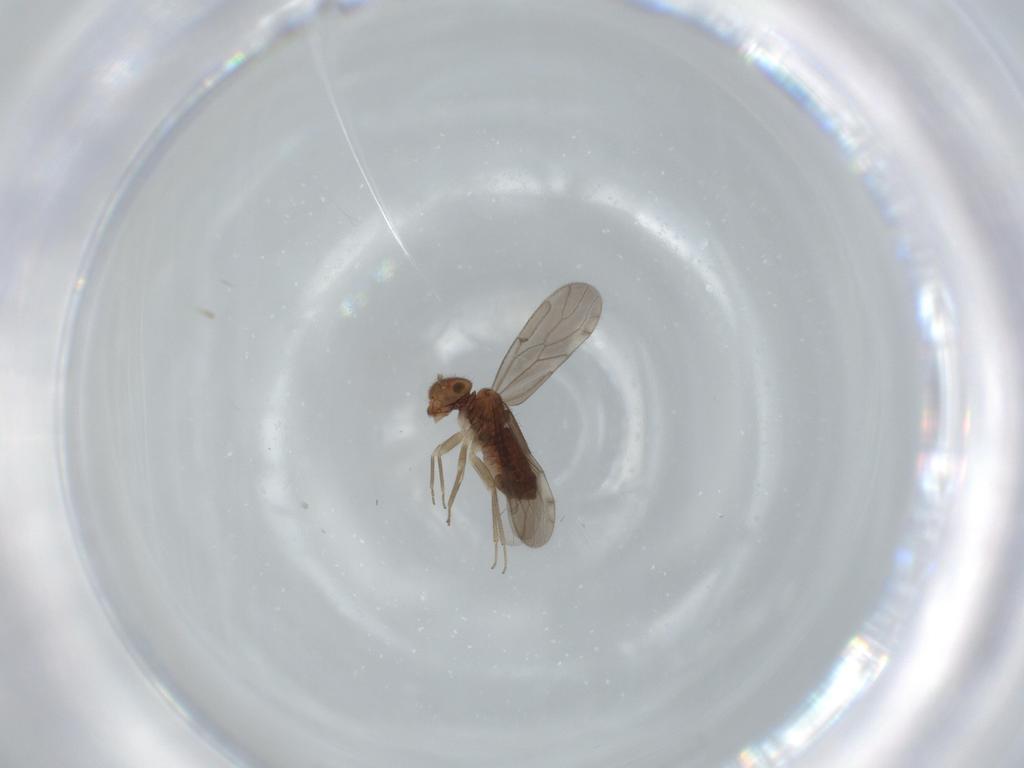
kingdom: Animalia
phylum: Arthropoda
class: Insecta
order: Psocodea
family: Ectopsocidae
